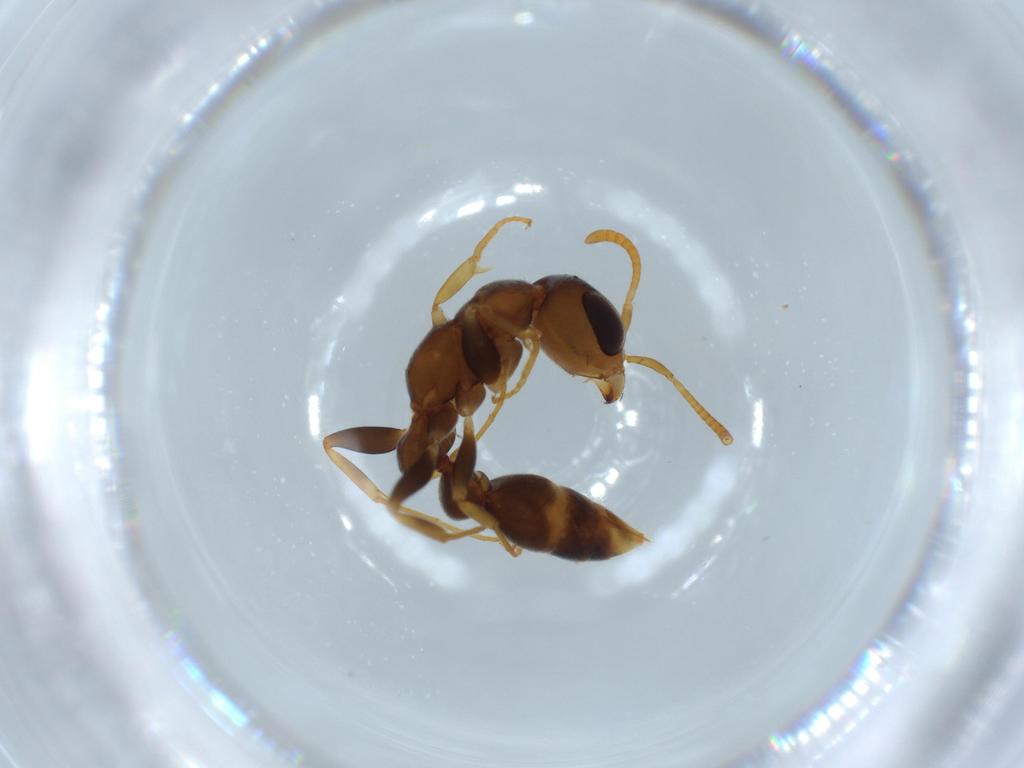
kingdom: Animalia
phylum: Arthropoda
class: Insecta
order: Hymenoptera
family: Formicidae
